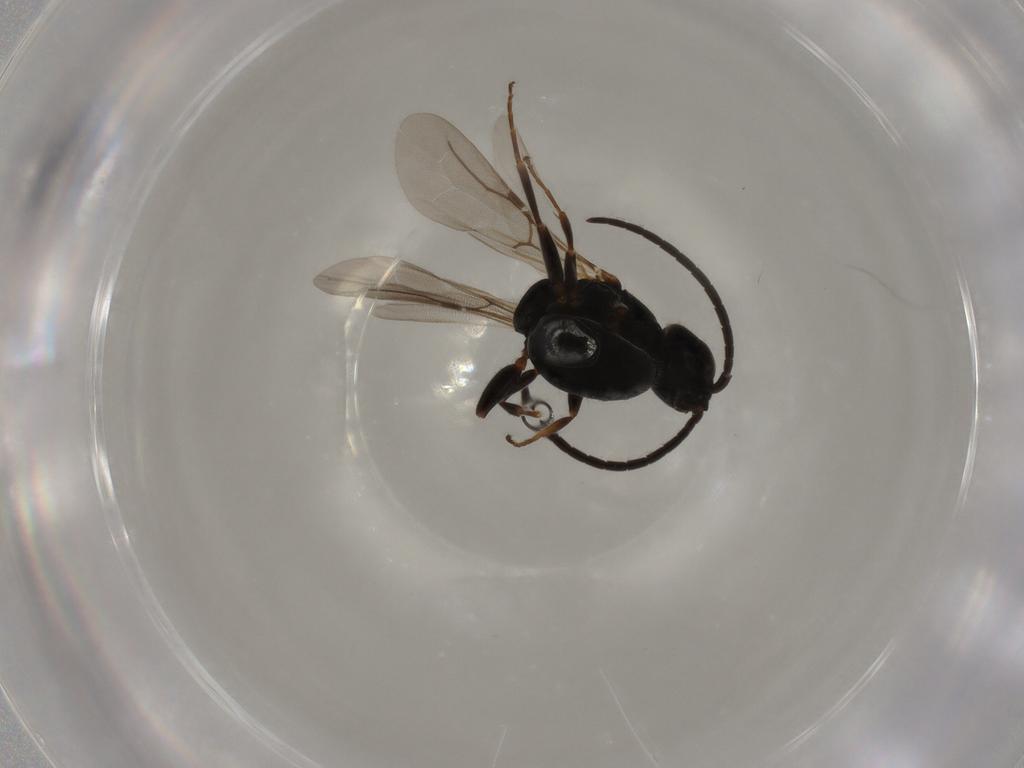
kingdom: Animalia
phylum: Arthropoda
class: Insecta
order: Hymenoptera
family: Bethylidae
